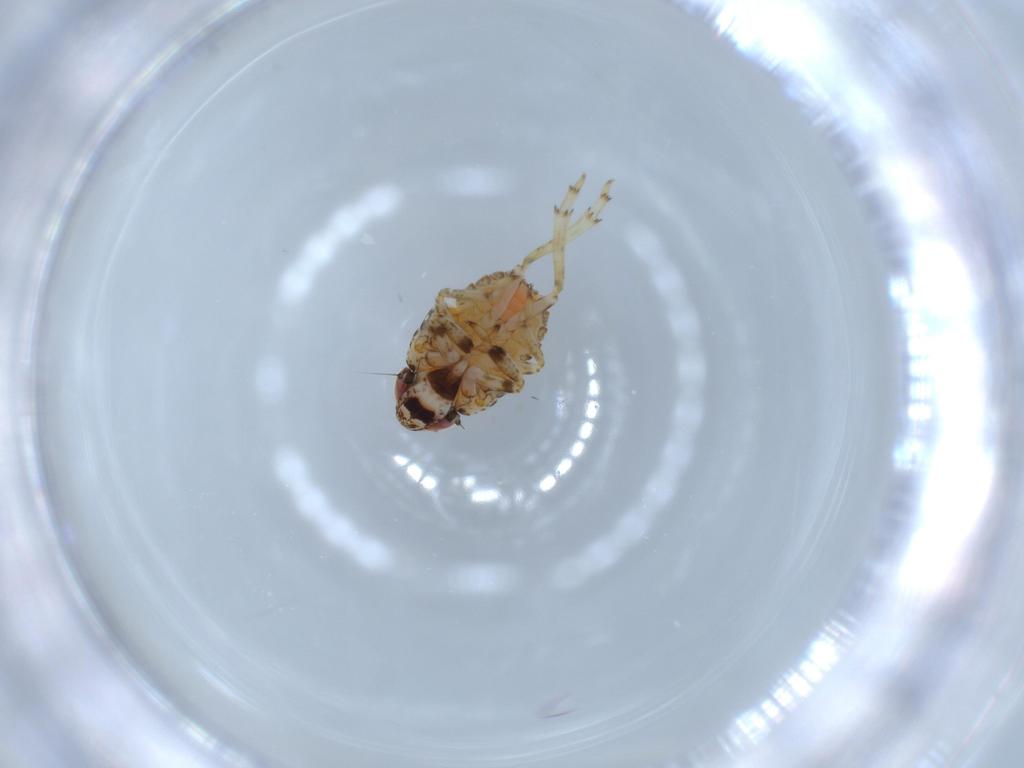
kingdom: Animalia
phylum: Arthropoda
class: Insecta
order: Hemiptera
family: Issidae
